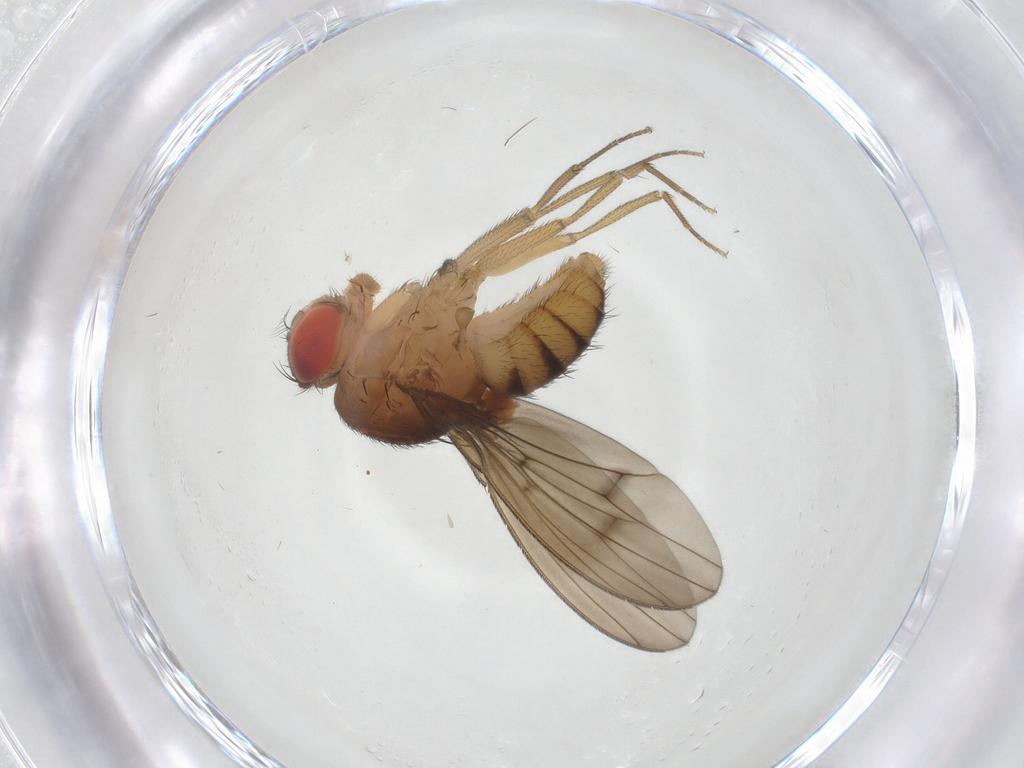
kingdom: Animalia
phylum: Arthropoda
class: Insecta
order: Diptera
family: Drosophilidae
